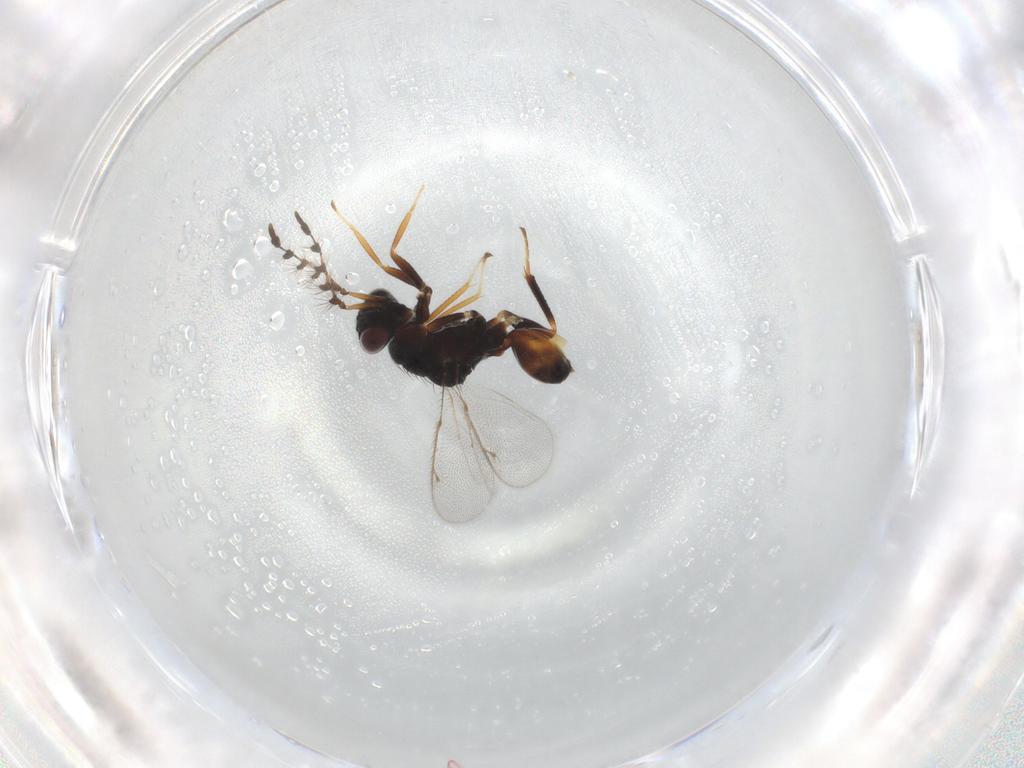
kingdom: Animalia
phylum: Arthropoda
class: Insecta
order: Hymenoptera
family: Eulophidae
